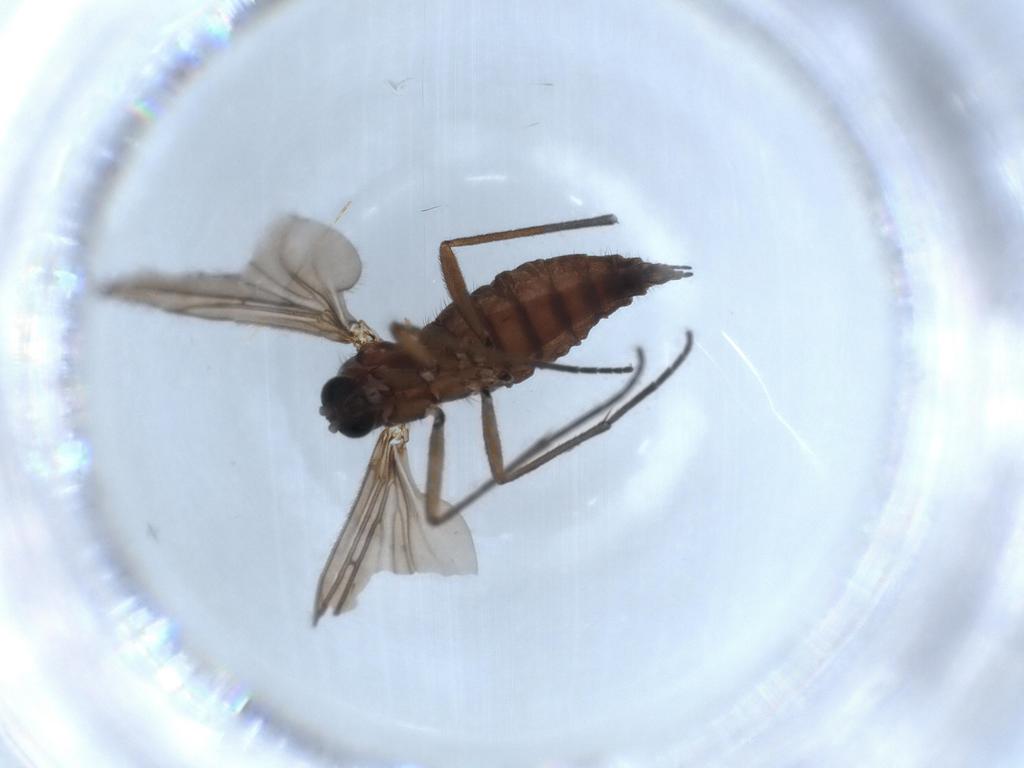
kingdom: Animalia
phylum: Arthropoda
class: Insecta
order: Diptera
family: Sciaridae
